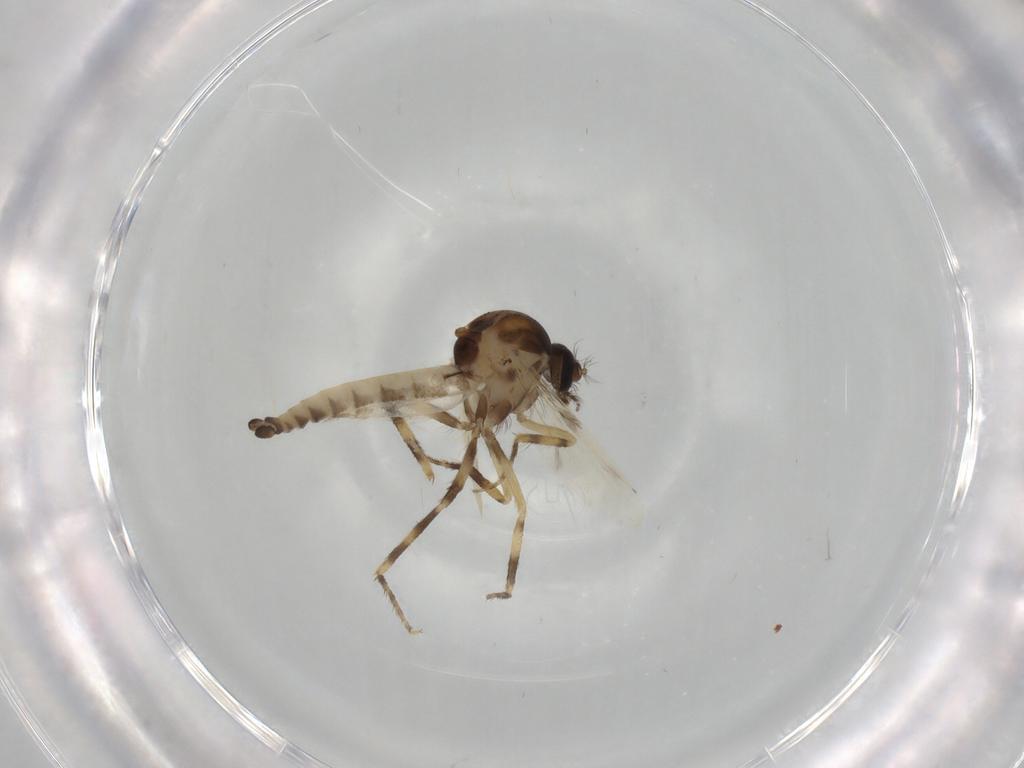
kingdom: Animalia
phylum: Arthropoda
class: Insecta
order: Diptera
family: Ceratopogonidae
